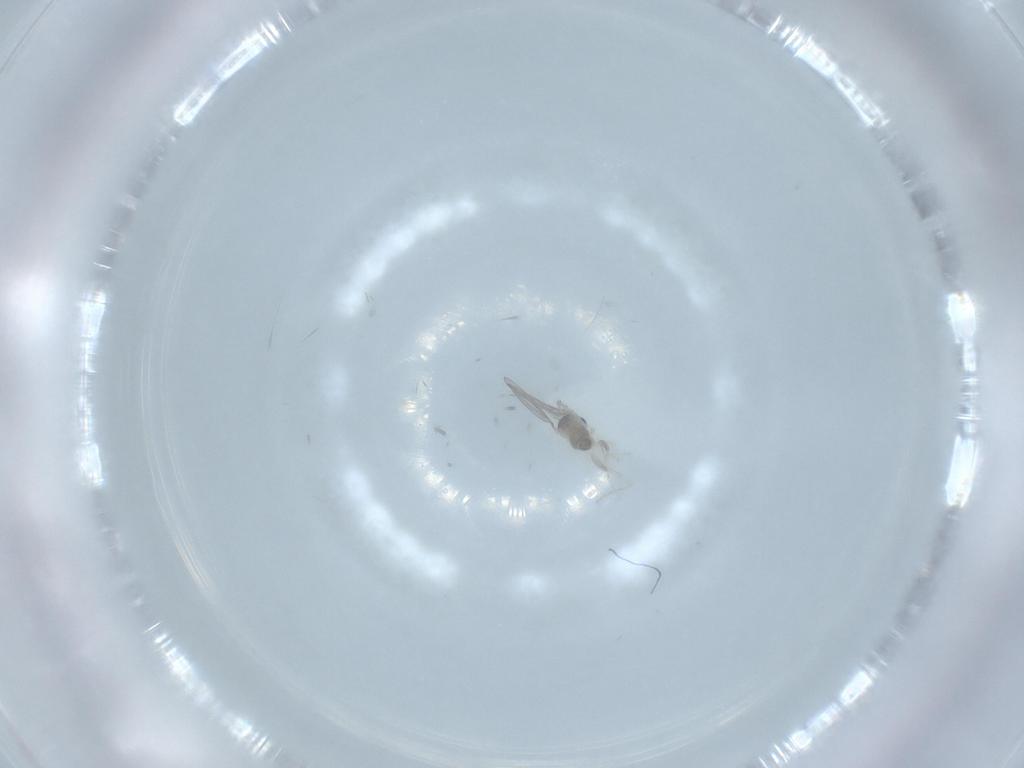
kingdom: Animalia
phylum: Arthropoda
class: Insecta
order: Diptera
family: Cecidomyiidae
